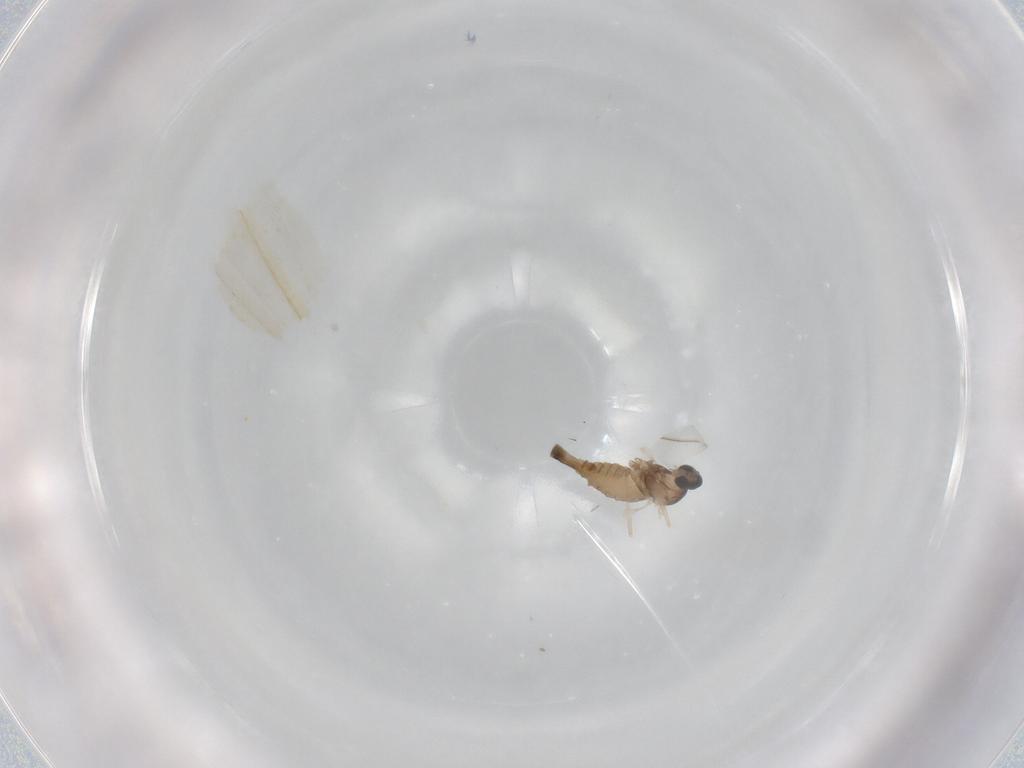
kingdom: Animalia
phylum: Arthropoda
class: Insecta
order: Diptera
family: Cecidomyiidae
